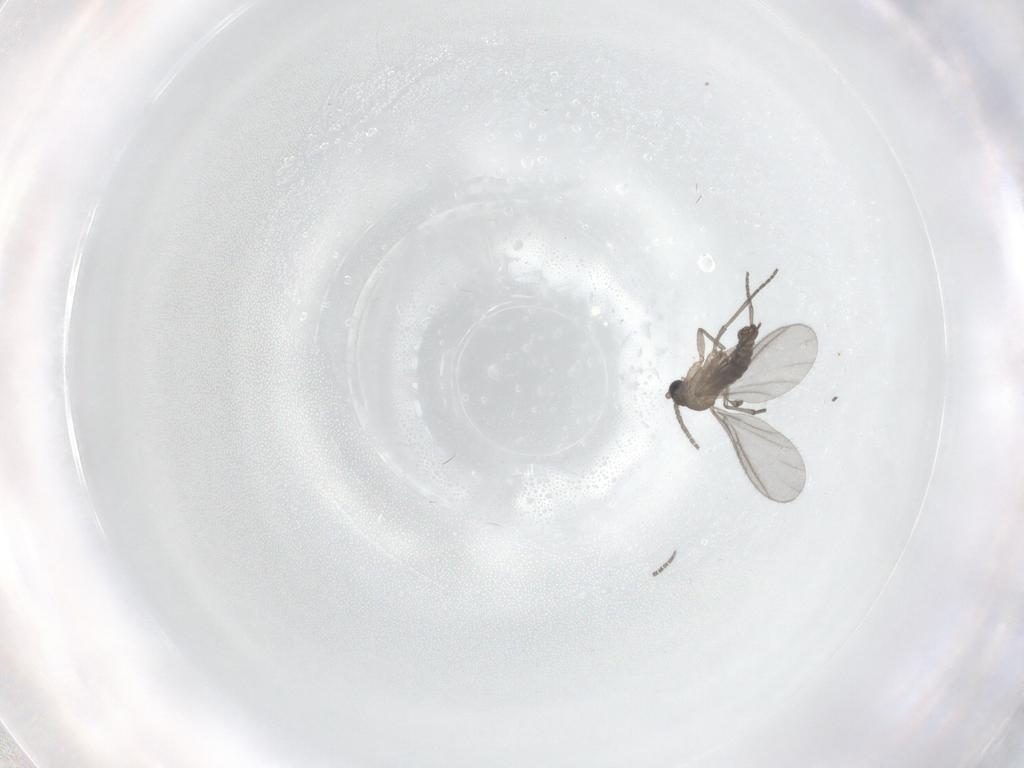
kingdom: Animalia
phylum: Arthropoda
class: Insecta
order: Diptera
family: Sciaridae
